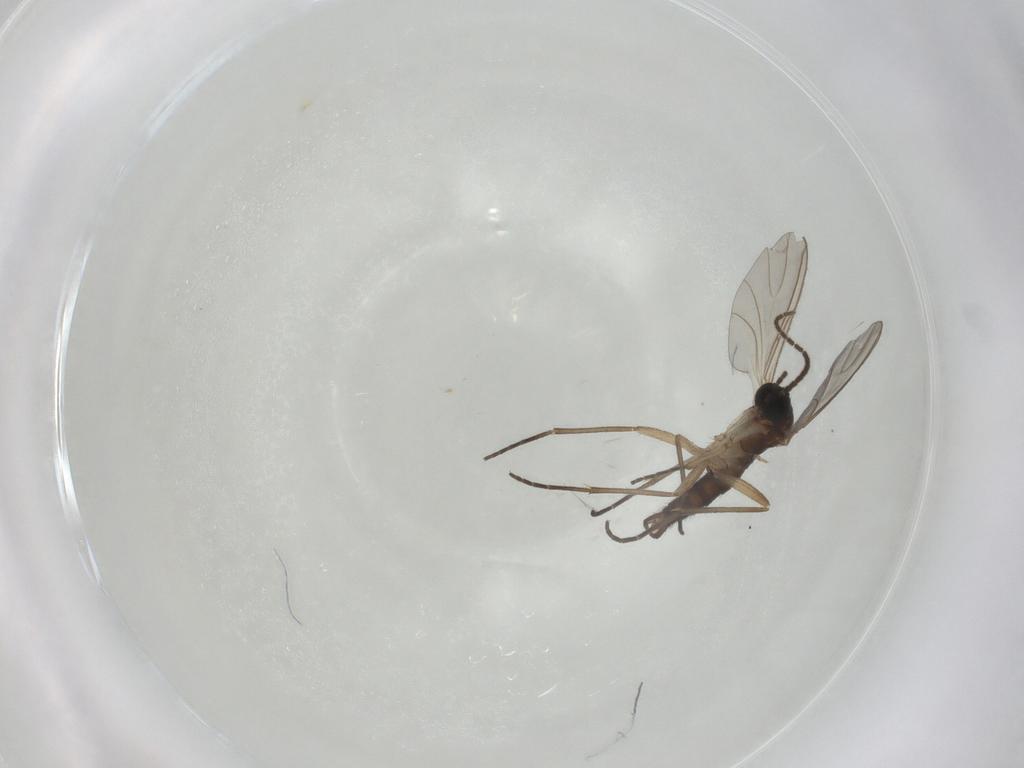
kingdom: Animalia
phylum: Arthropoda
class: Insecta
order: Diptera
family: Sciaridae
